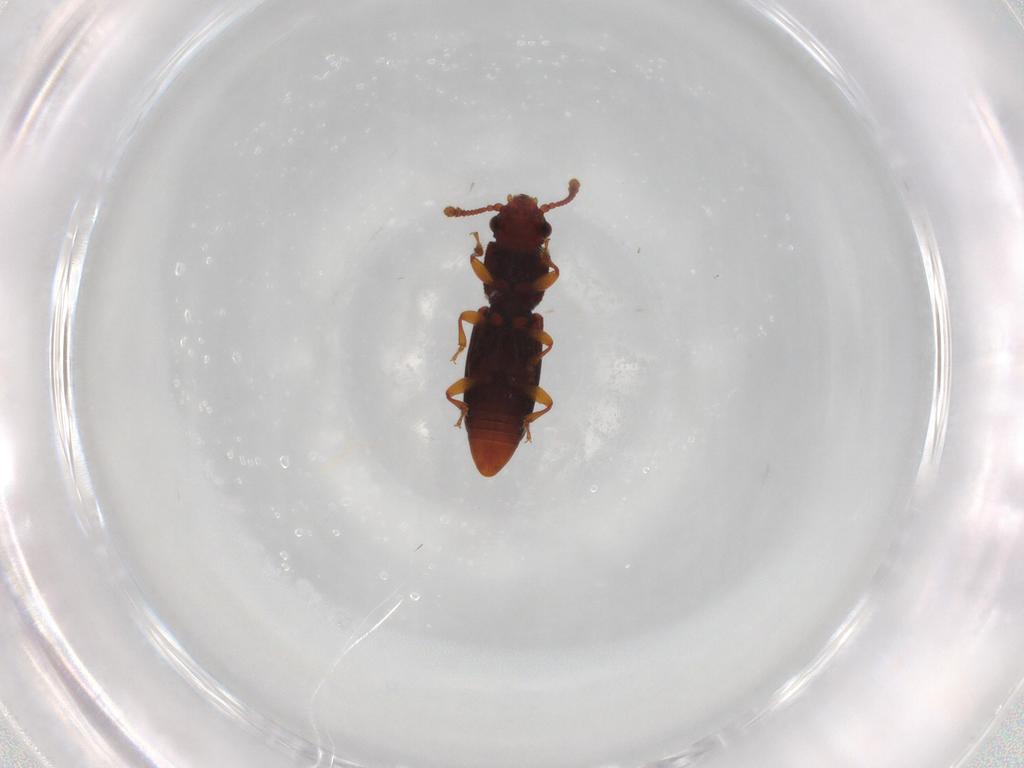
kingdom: Animalia
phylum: Arthropoda
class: Insecta
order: Coleoptera
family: Monotomidae
